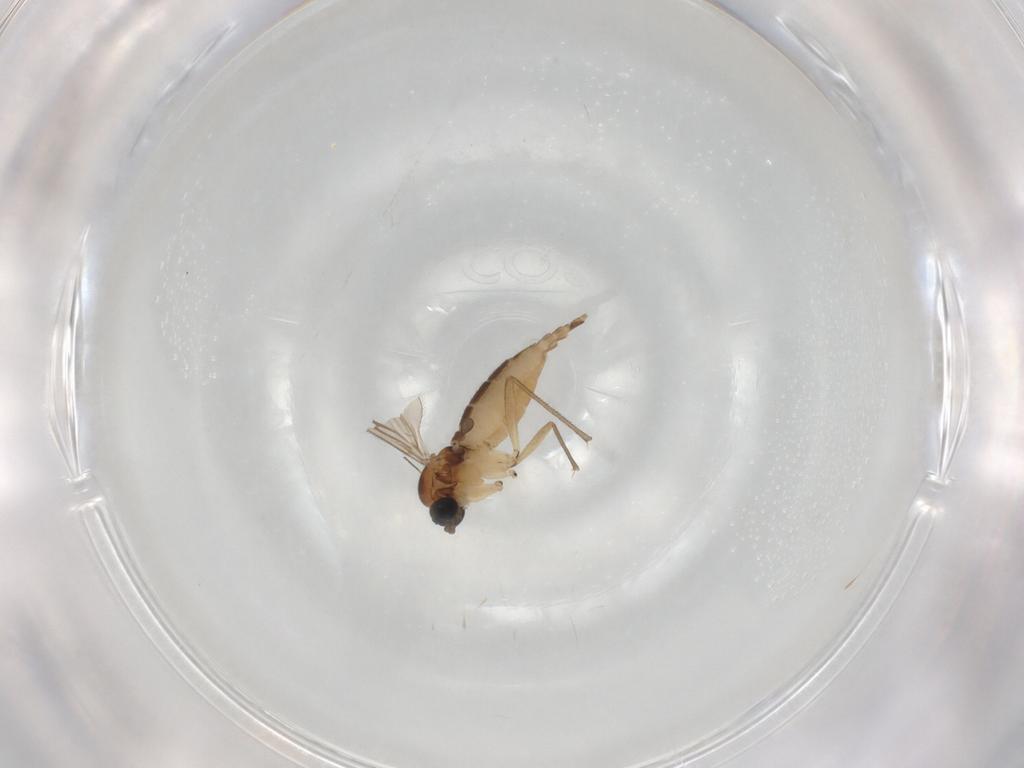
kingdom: Animalia
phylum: Arthropoda
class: Insecta
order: Diptera
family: Sciaridae
